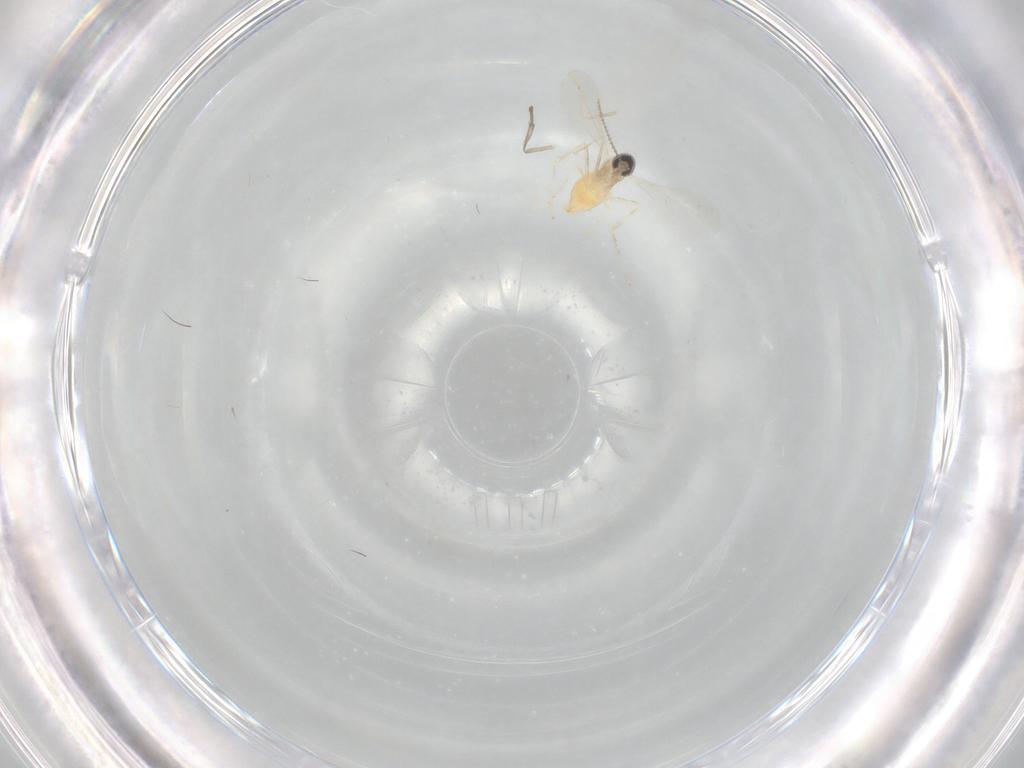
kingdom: Animalia
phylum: Arthropoda
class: Insecta
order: Diptera
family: Cecidomyiidae
